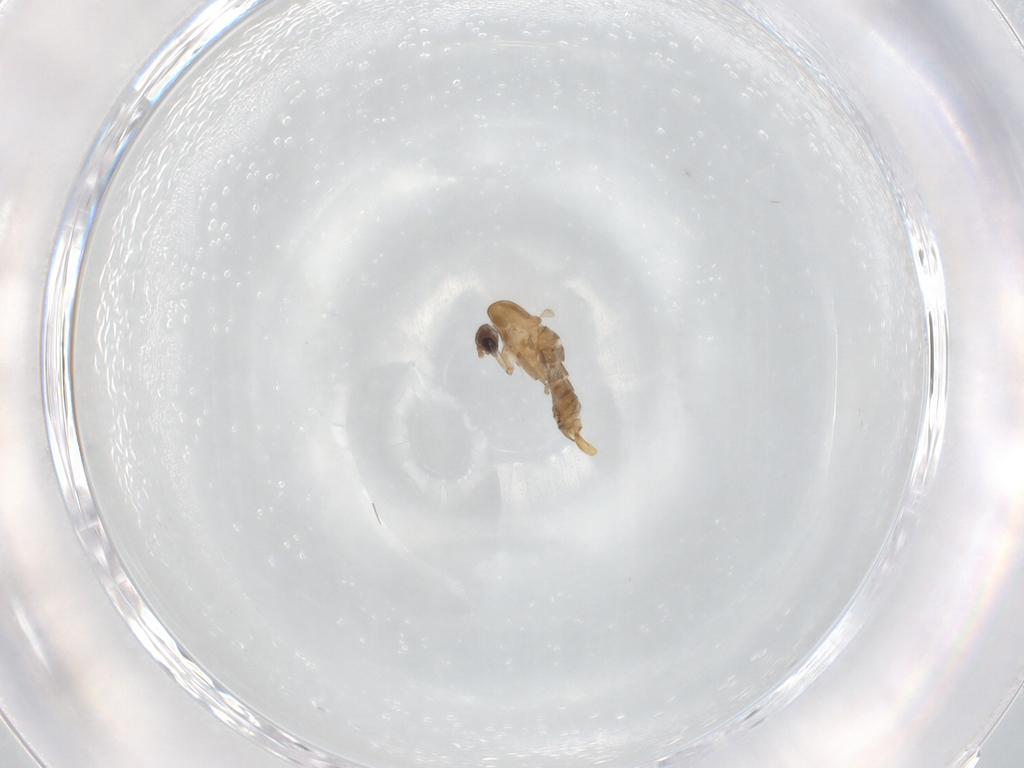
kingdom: Animalia
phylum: Arthropoda
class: Insecta
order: Diptera
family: Psychodidae
